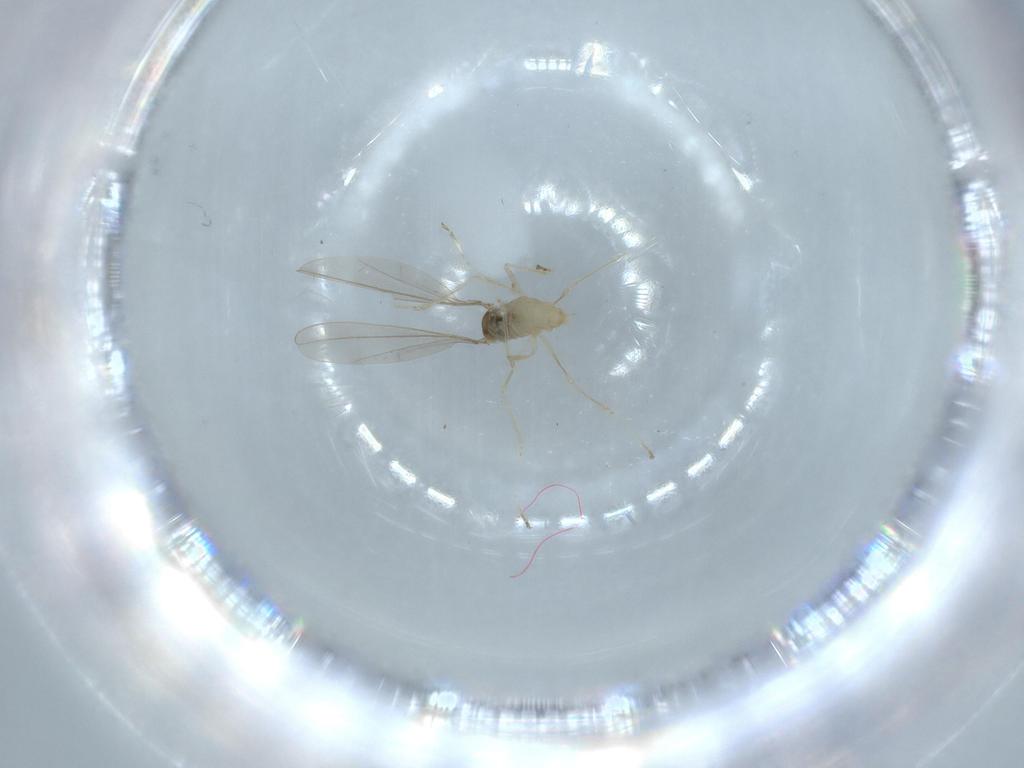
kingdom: Animalia
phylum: Arthropoda
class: Insecta
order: Diptera
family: Cecidomyiidae
